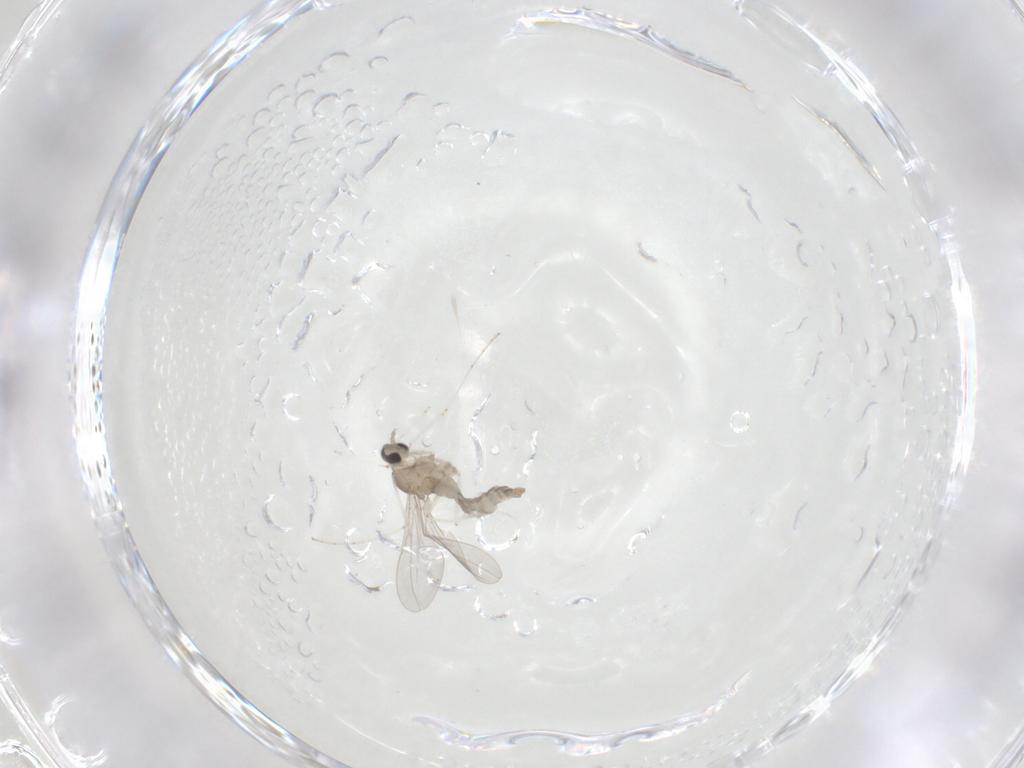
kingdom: Animalia
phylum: Arthropoda
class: Insecta
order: Diptera
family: Cecidomyiidae
